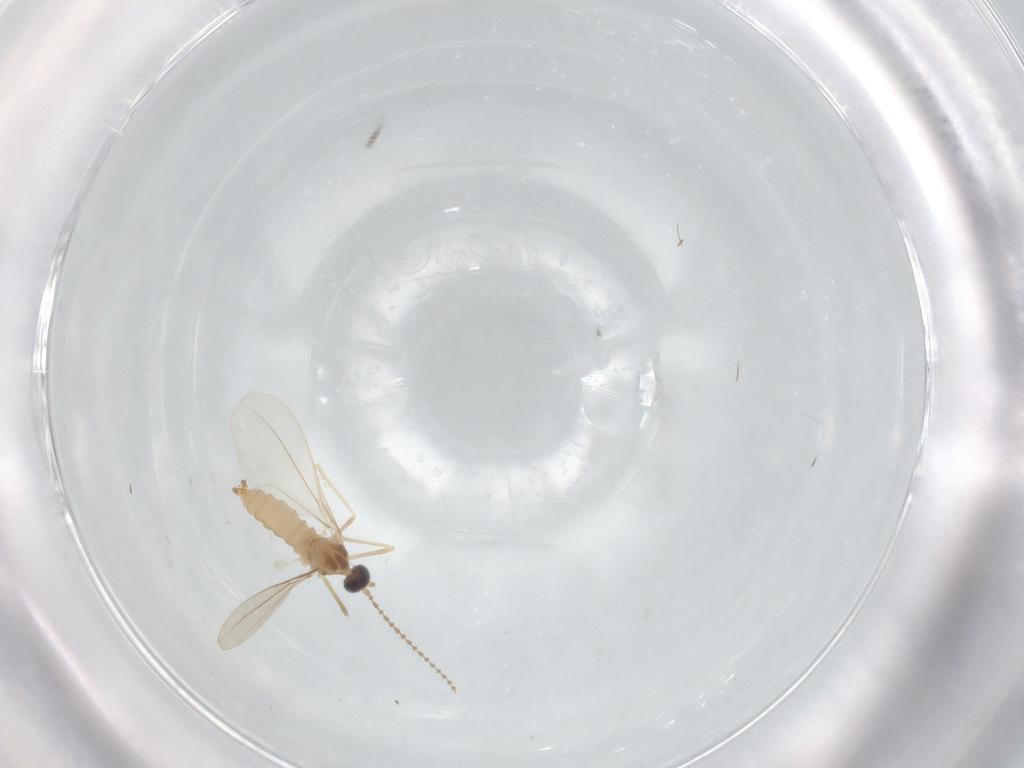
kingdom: Animalia
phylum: Arthropoda
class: Insecta
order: Diptera
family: Cecidomyiidae
